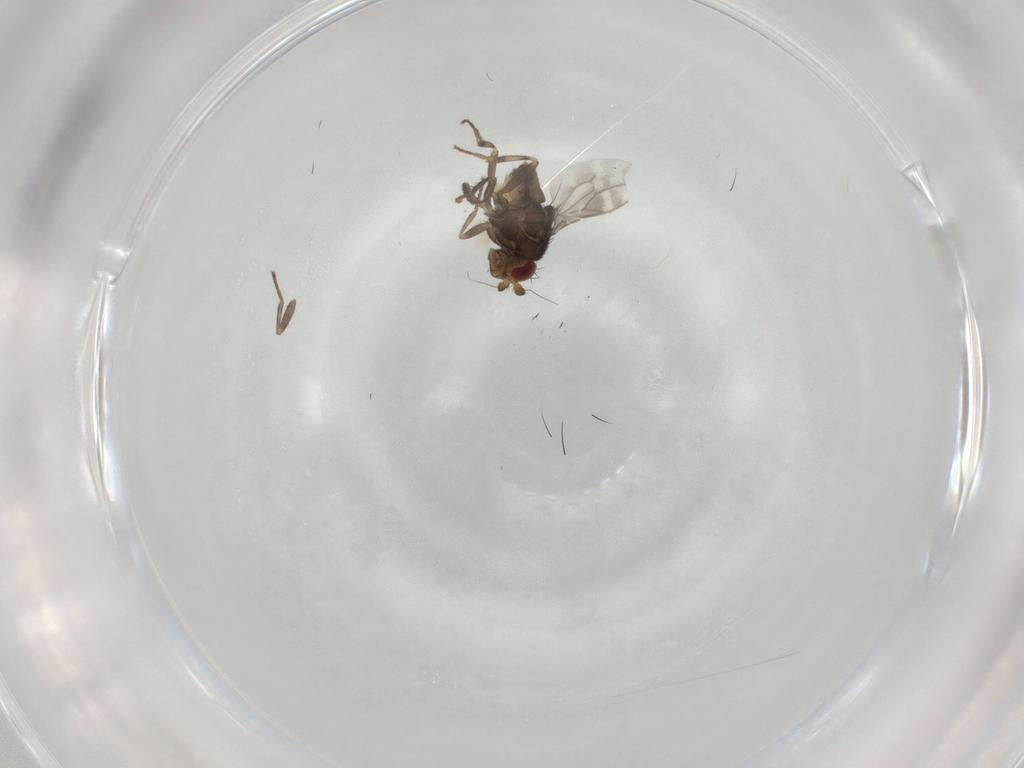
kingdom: Animalia
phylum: Arthropoda
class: Insecta
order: Diptera
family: Sphaeroceridae
